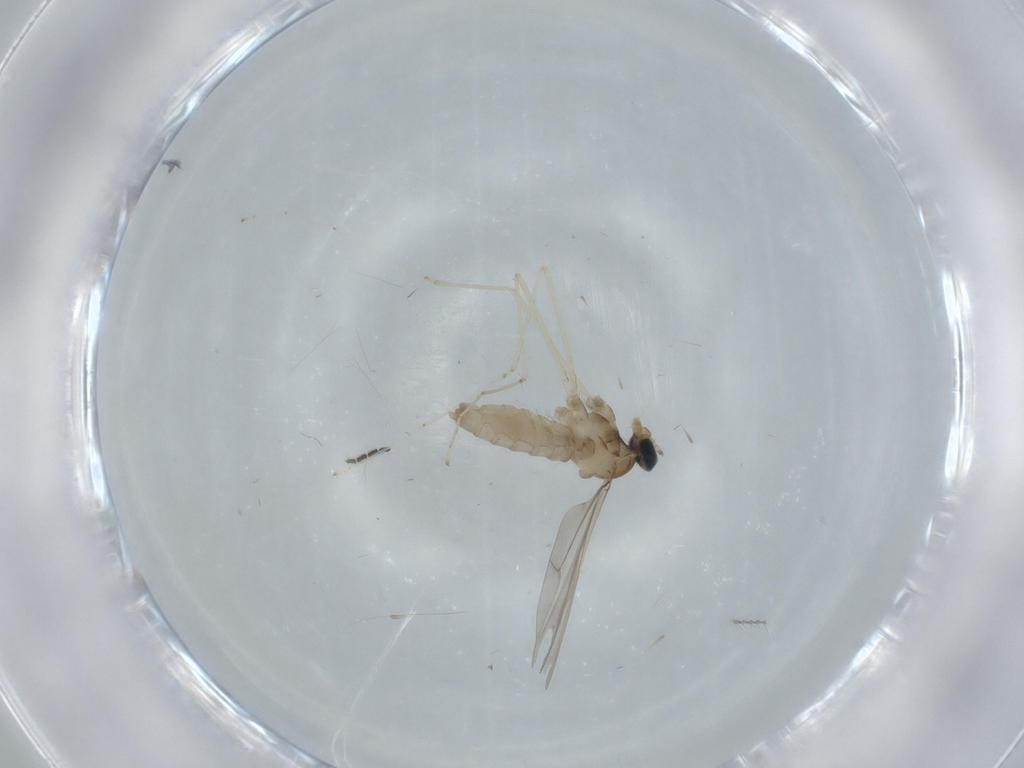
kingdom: Animalia
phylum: Arthropoda
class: Insecta
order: Diptera
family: Cecidomyiidae
